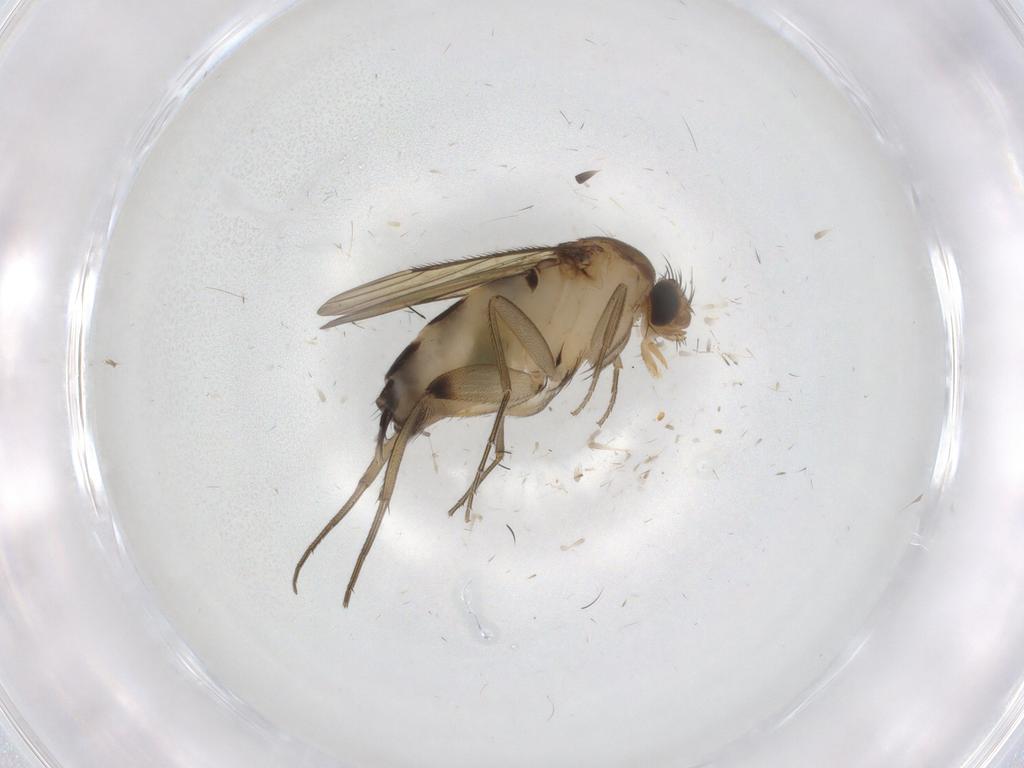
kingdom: Animalia
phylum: Arthropoda
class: Insecta
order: Diptera
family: Phoridae
